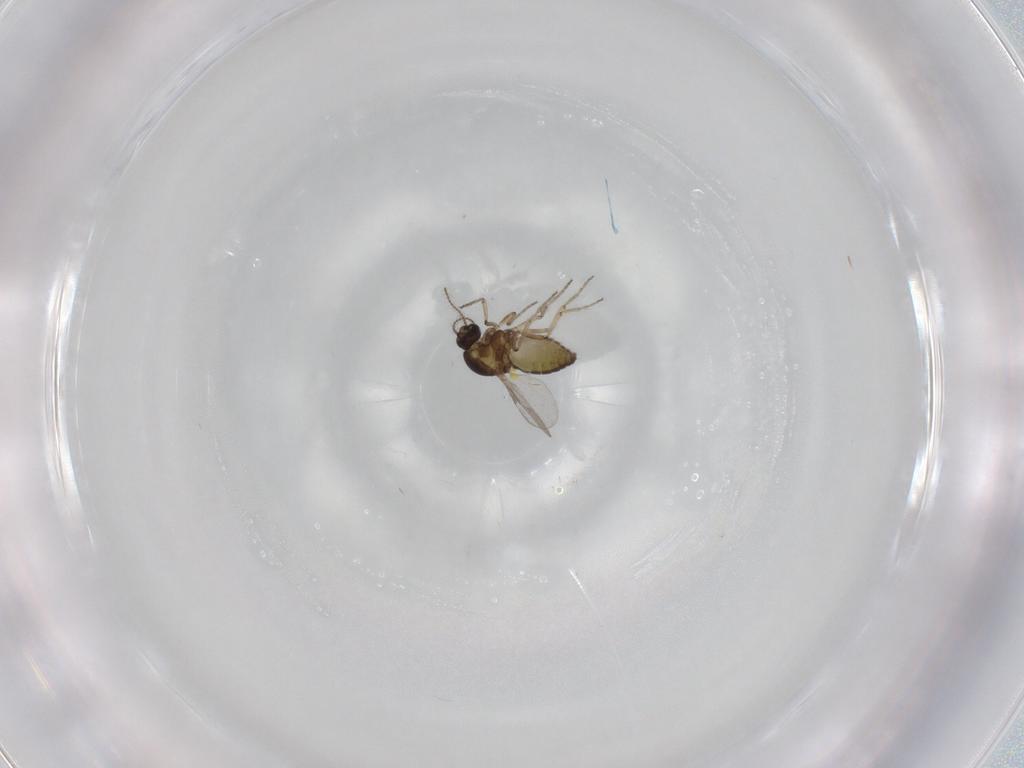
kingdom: Animalia
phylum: Arthropoda
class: Insecta
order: Diptera
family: Ceratopogonidae
